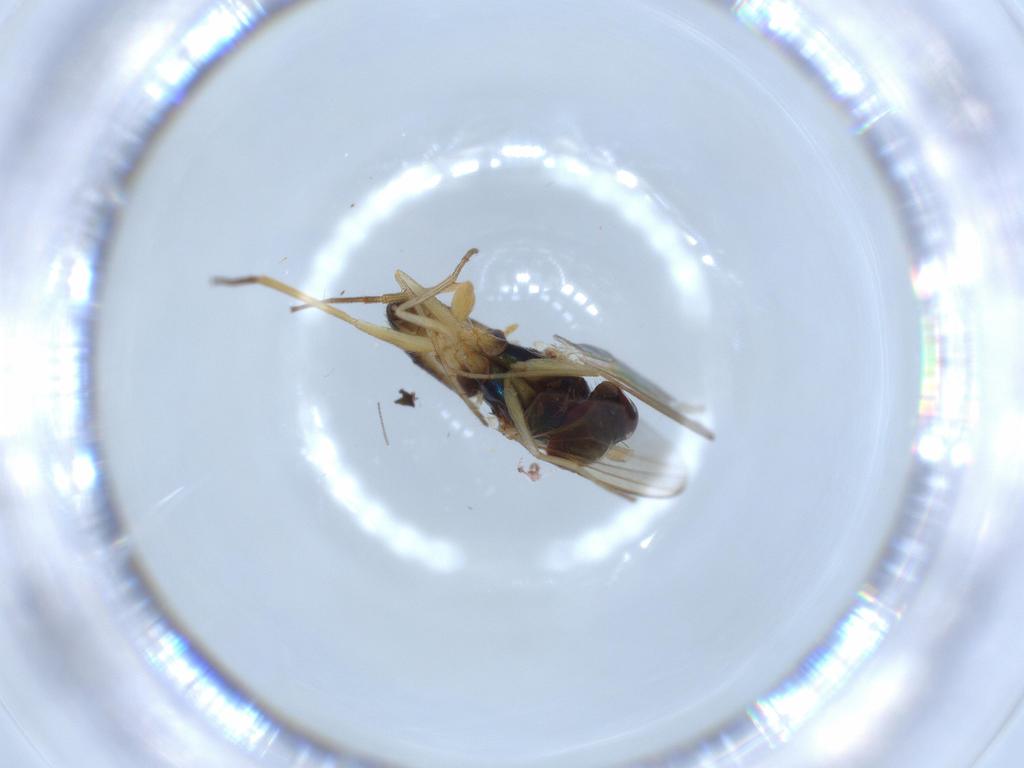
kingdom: Animalia
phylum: Arthropoda
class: Insecta
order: Diptera
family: Dolichopodidae
